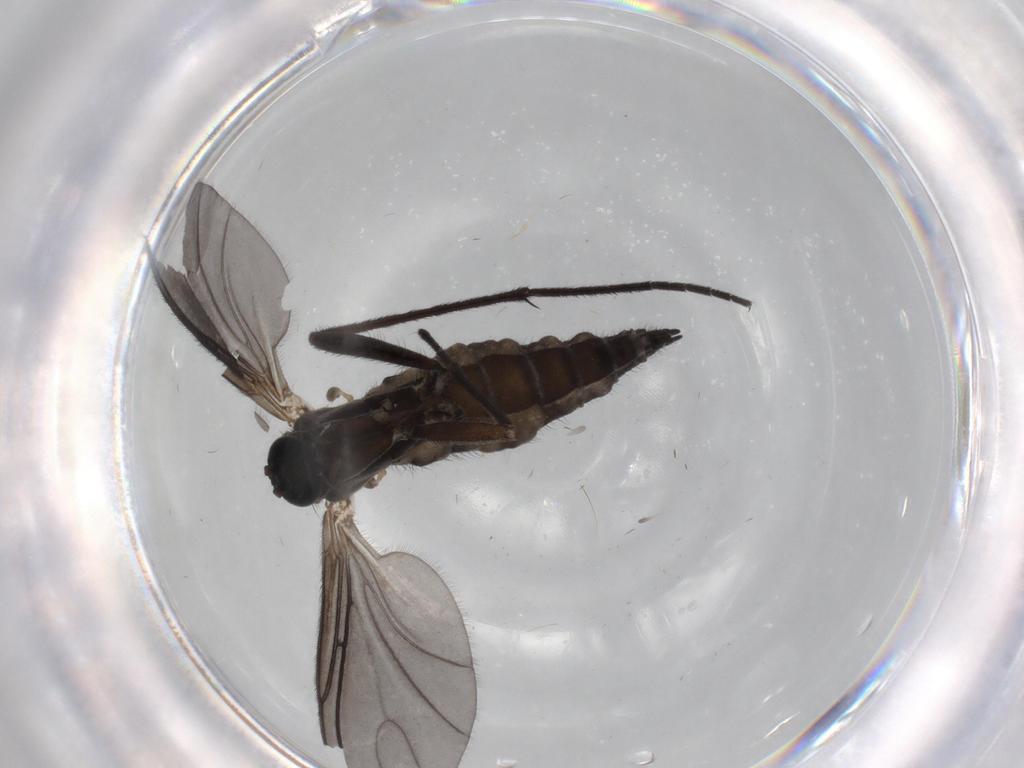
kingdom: Animalia
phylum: Arthropoda
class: Insecta
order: Diptera
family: Sciaridae
